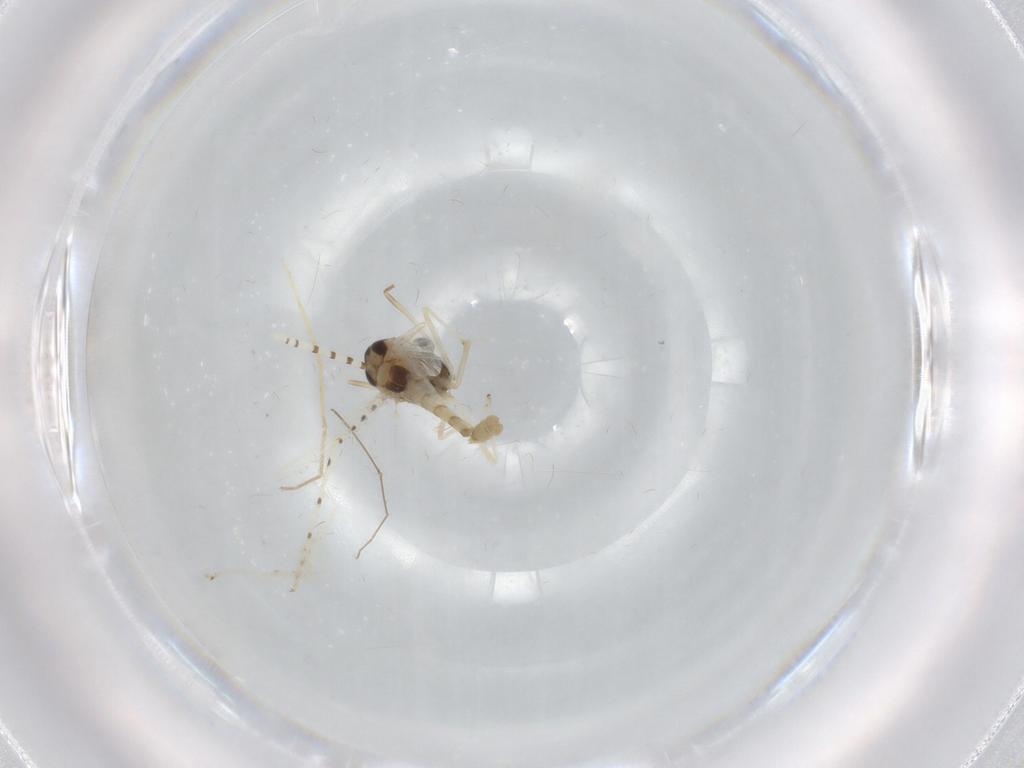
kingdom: Animalia
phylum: Arthropoda
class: Insecta
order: Diptera
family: Chironomidae
